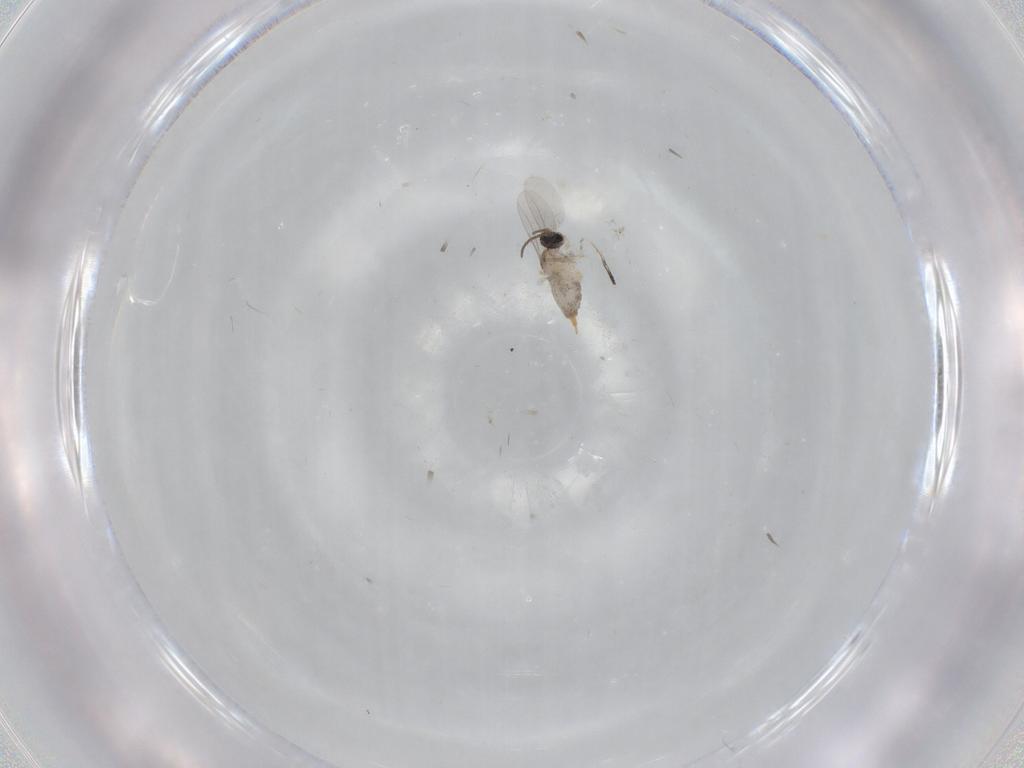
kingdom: Animalia
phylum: Arthropoda
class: Insecta
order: Diptera
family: Cecidomyiidae
